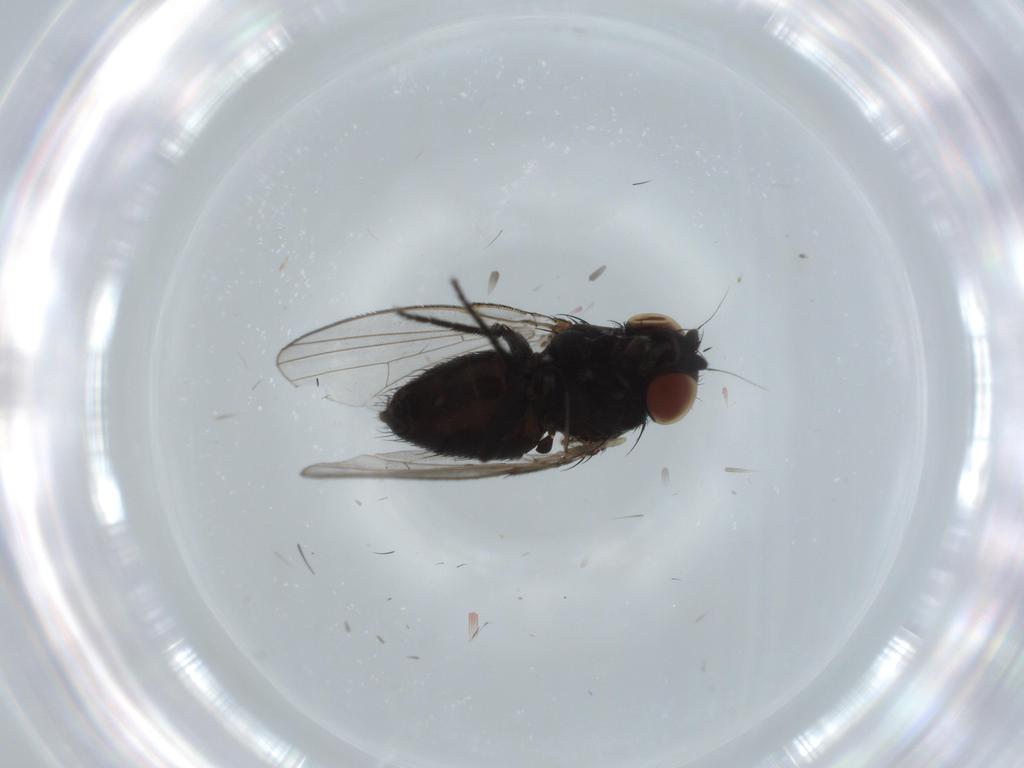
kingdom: Animalia
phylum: Arthropoda
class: Insecta
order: Diptera
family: Milichiidae
